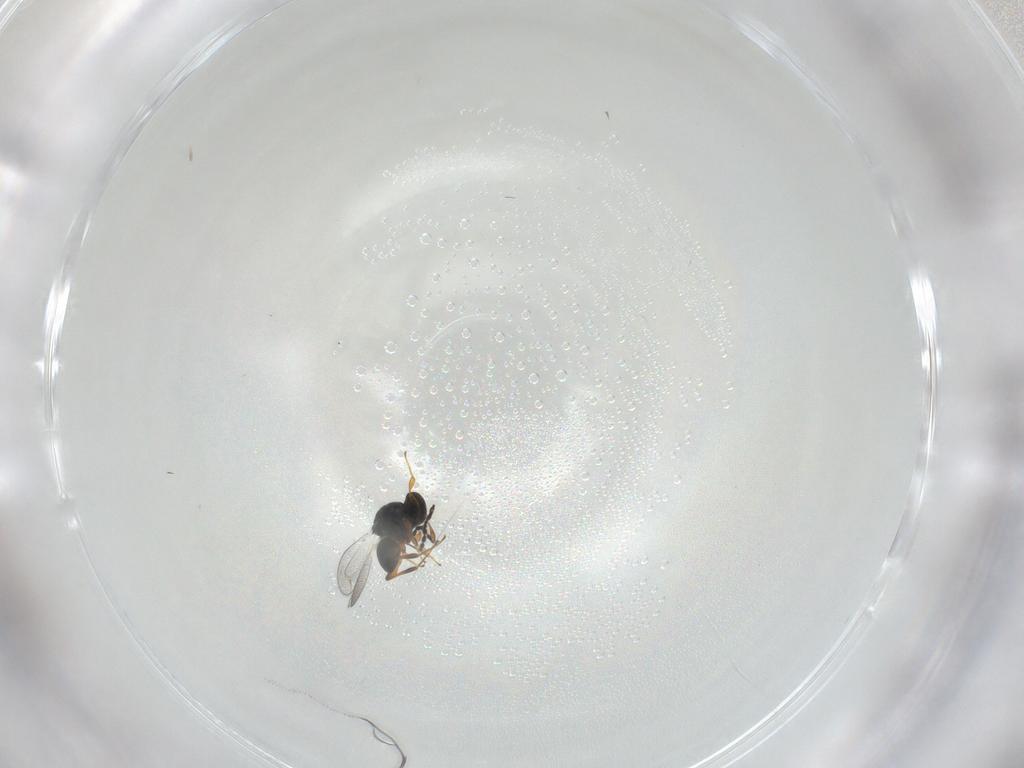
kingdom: Animalia
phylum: Arthropoda
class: Insecta
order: Hymenoptera
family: Platygastridae
